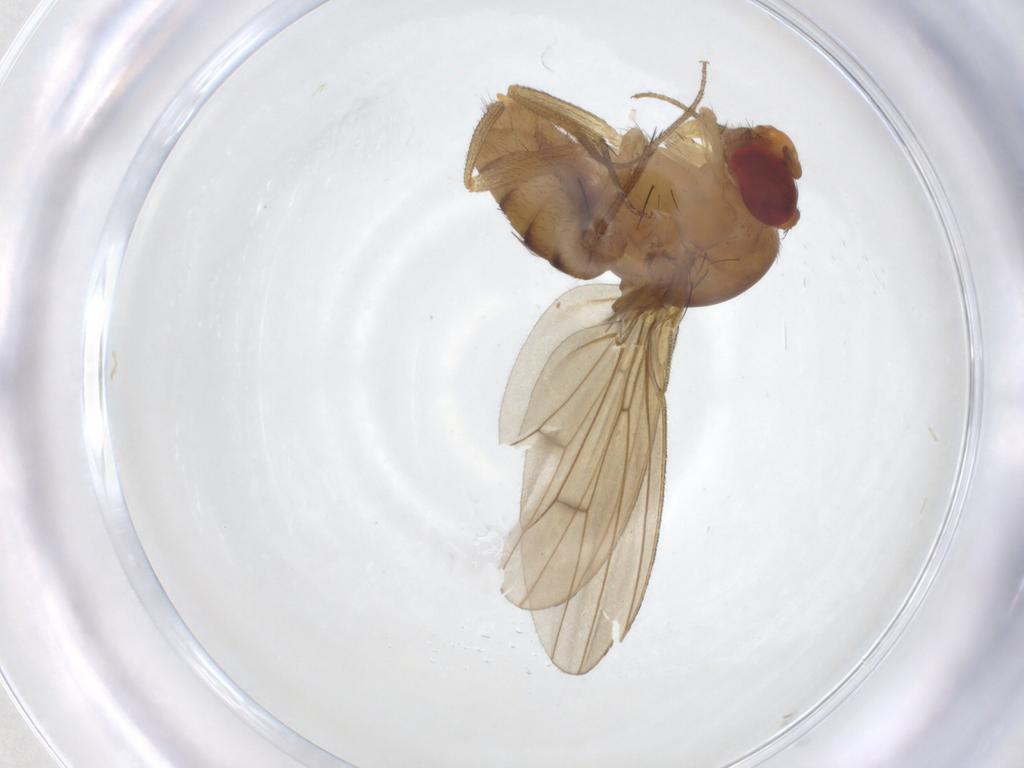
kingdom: Animalia
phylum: Arthropoda
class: Insecta
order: Diptera
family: Drosophilidae
